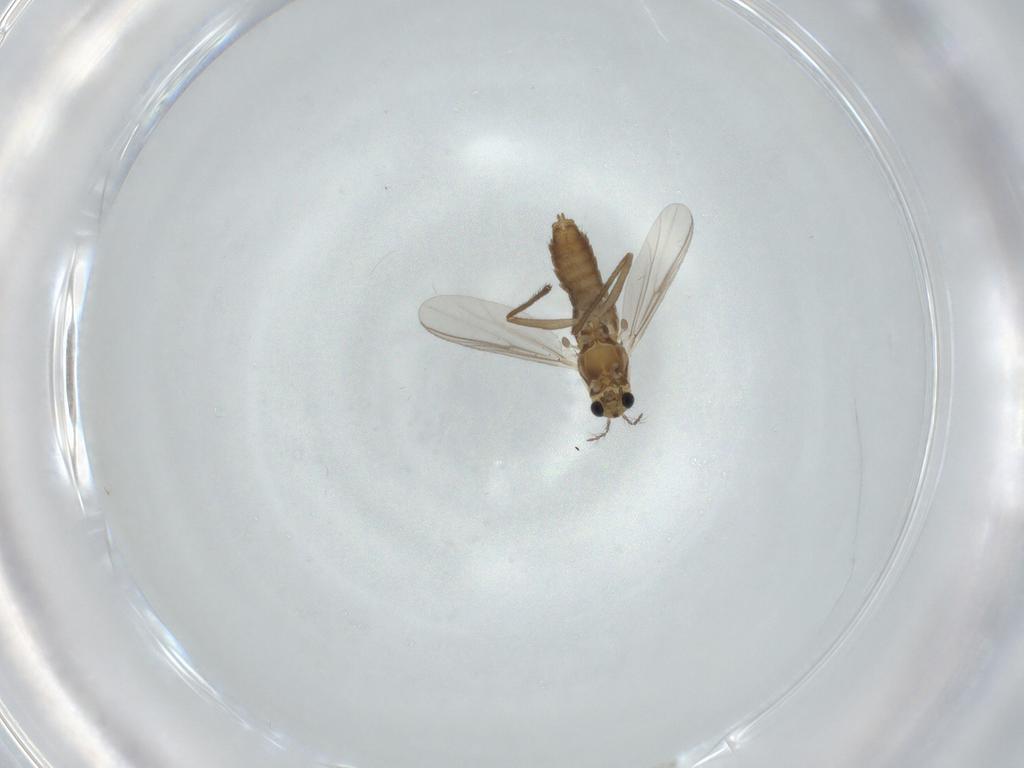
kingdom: Animalia
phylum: Arthropoda
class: Insecta
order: Diptera
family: Chironomidae
